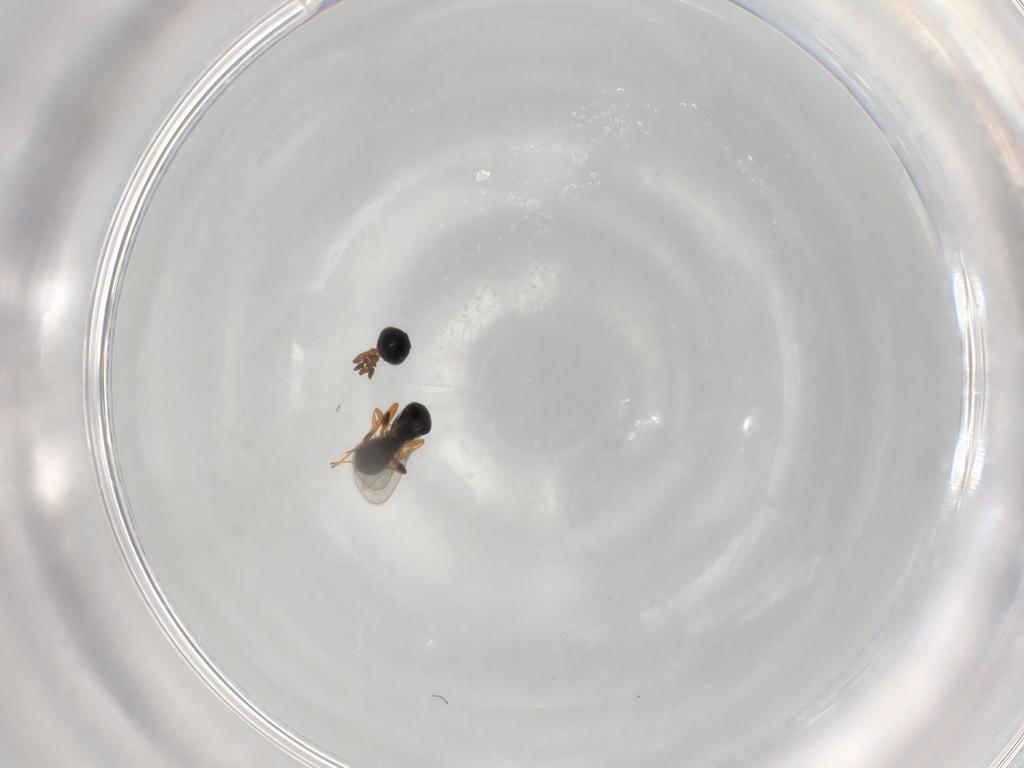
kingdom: Animalia
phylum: Arthropoda
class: Insecta
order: Hymenoptera
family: Platygastridae
